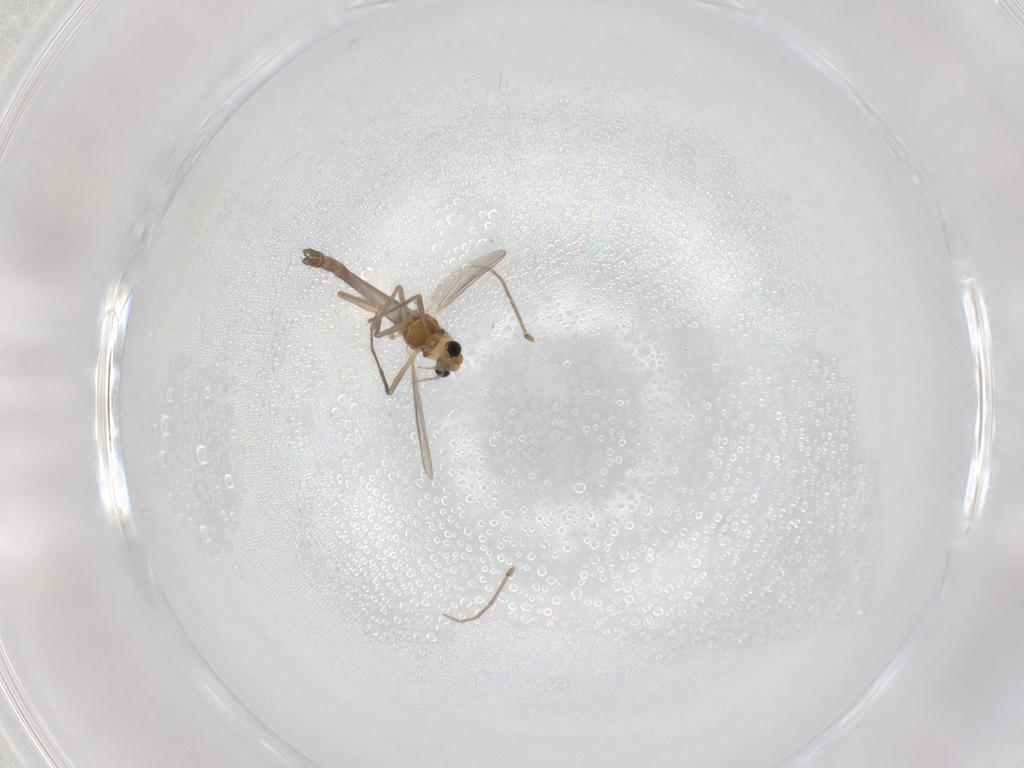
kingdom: Animalia
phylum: Arthropoda
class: Insecta
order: Diptera
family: Chironomidae
